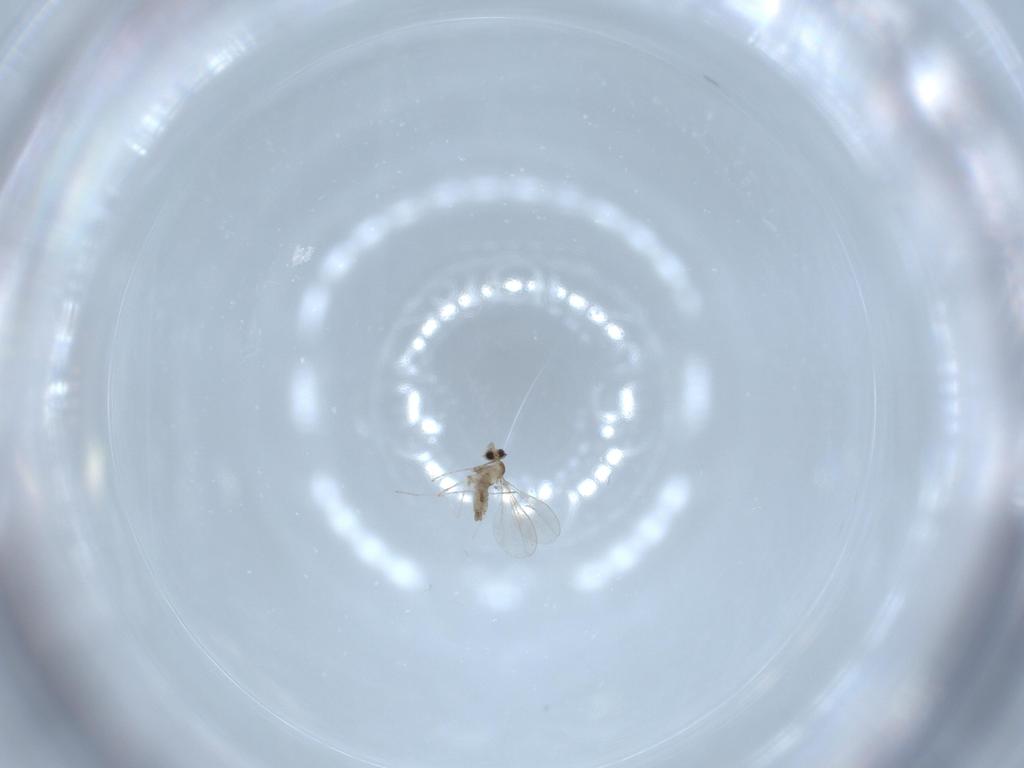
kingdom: Animalia
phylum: Arthropoda
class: Insecta
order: Diptera
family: Cecidomyiidae
